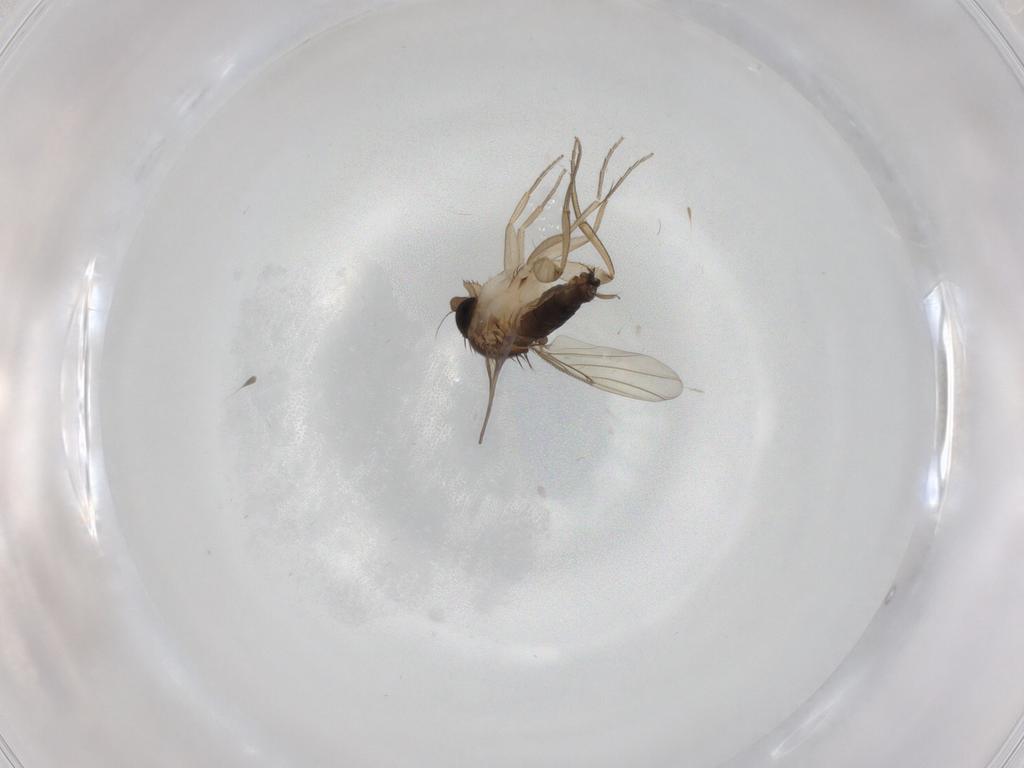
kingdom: Animalia
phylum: Arthropoda
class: Insecta
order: Diptera
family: Phoridae
